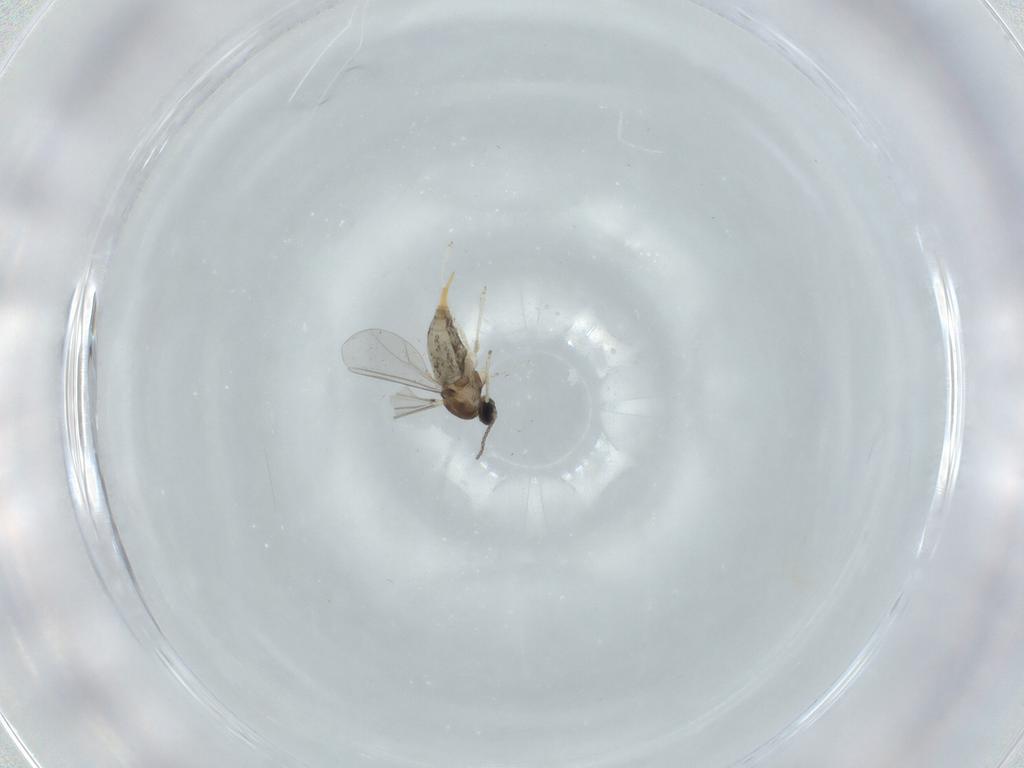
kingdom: Animalia
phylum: Arthropoda
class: Insecta
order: Diptera
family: Cecidomyiidae
